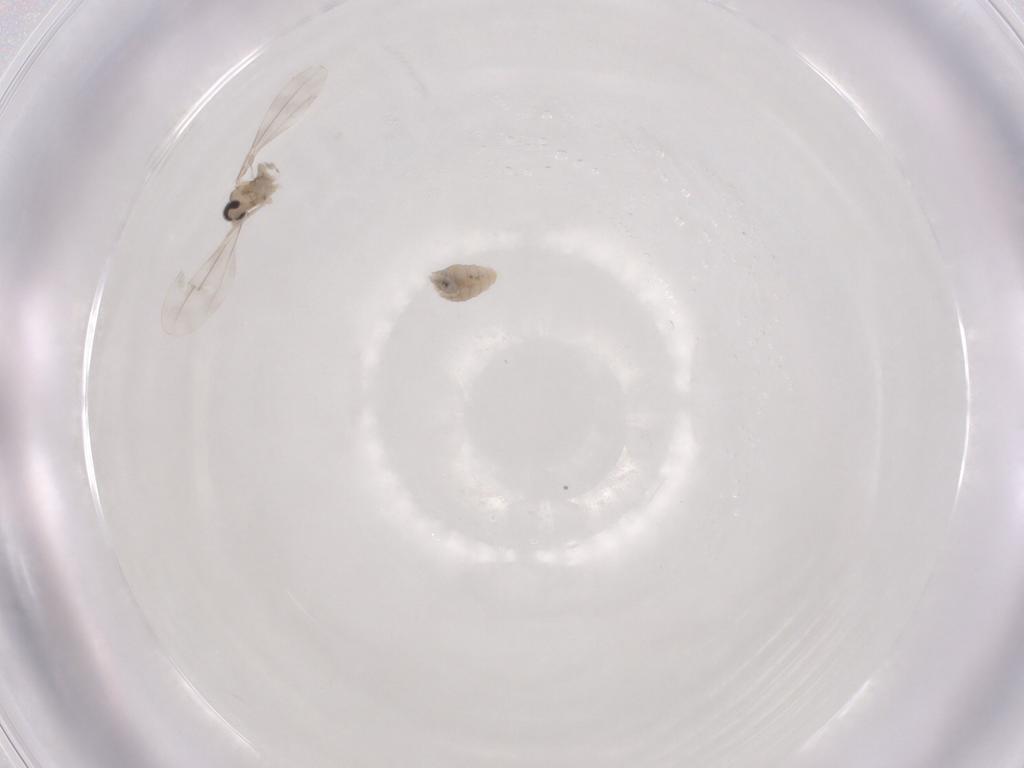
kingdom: Animalia
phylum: Arthropoda
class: Insecta
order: Diptera
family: Cecidomyiidae
